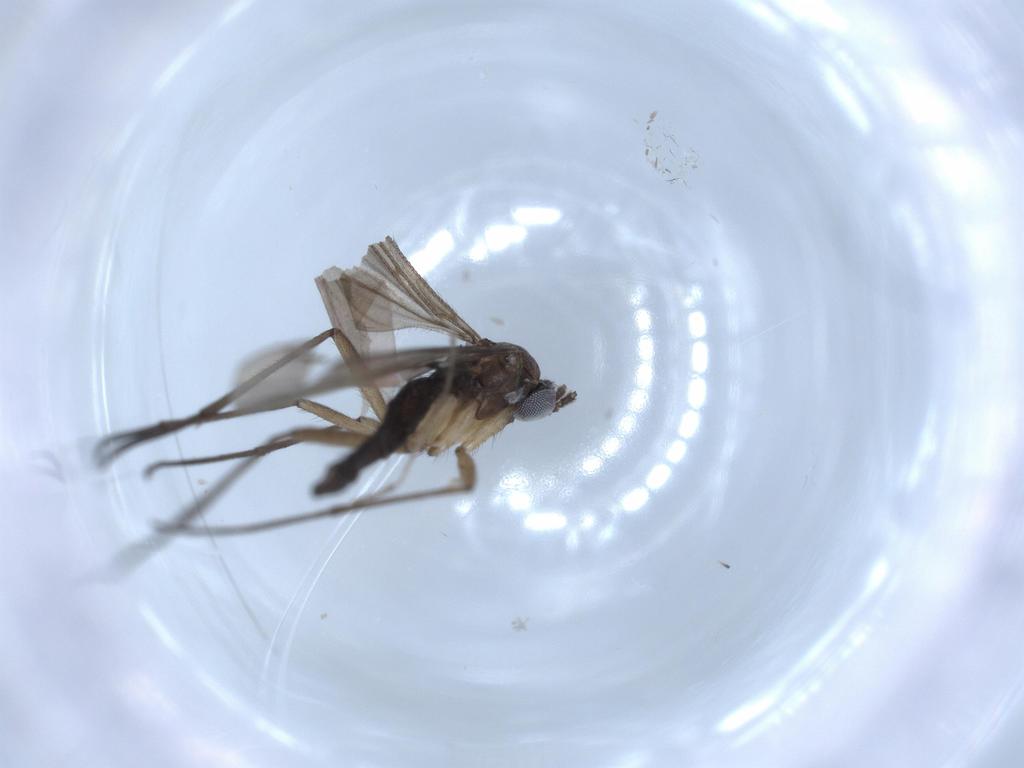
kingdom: Animalia
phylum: Arthropoda
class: Insecta
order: Diptera
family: Sciaridae
